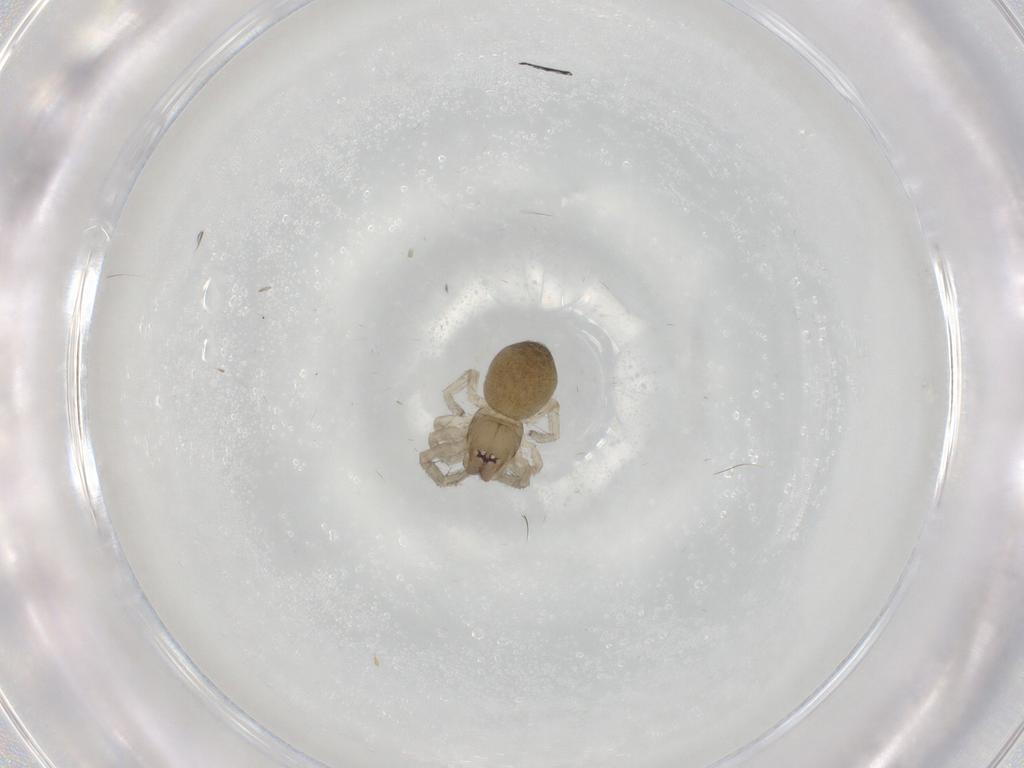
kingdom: Animalia
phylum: Arthropoda
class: Arachnida
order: Araneae
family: Anyphaenidae
